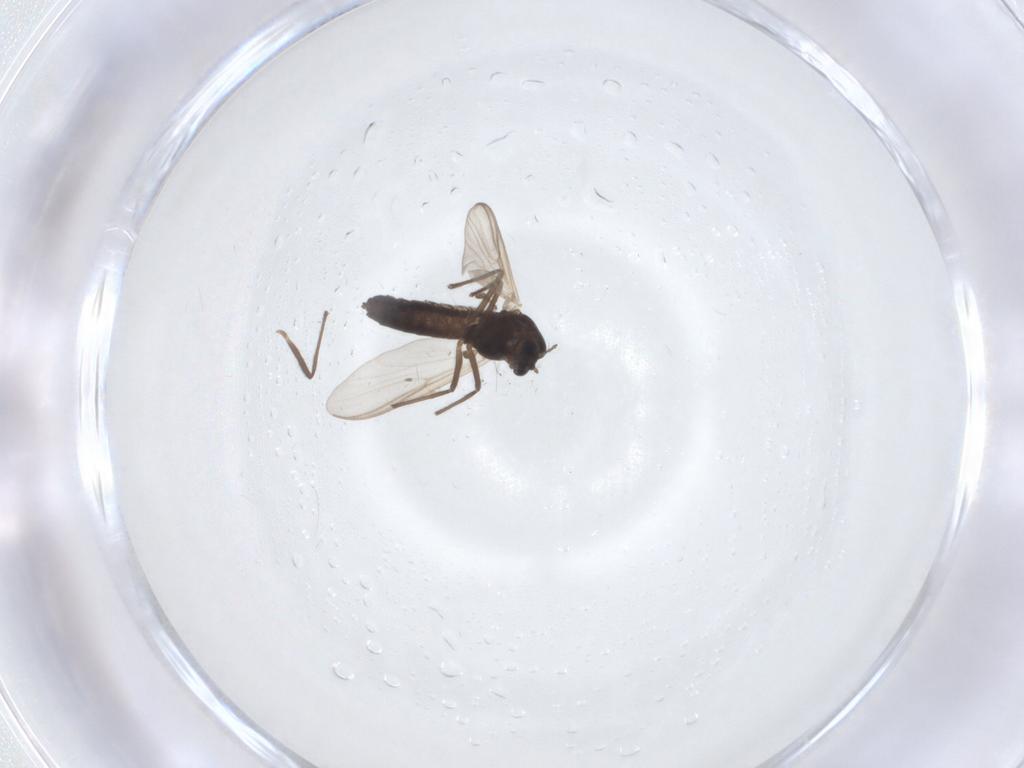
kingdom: Animalia
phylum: Arthropoda
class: Insecta
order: Diptera
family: Chironomidae
